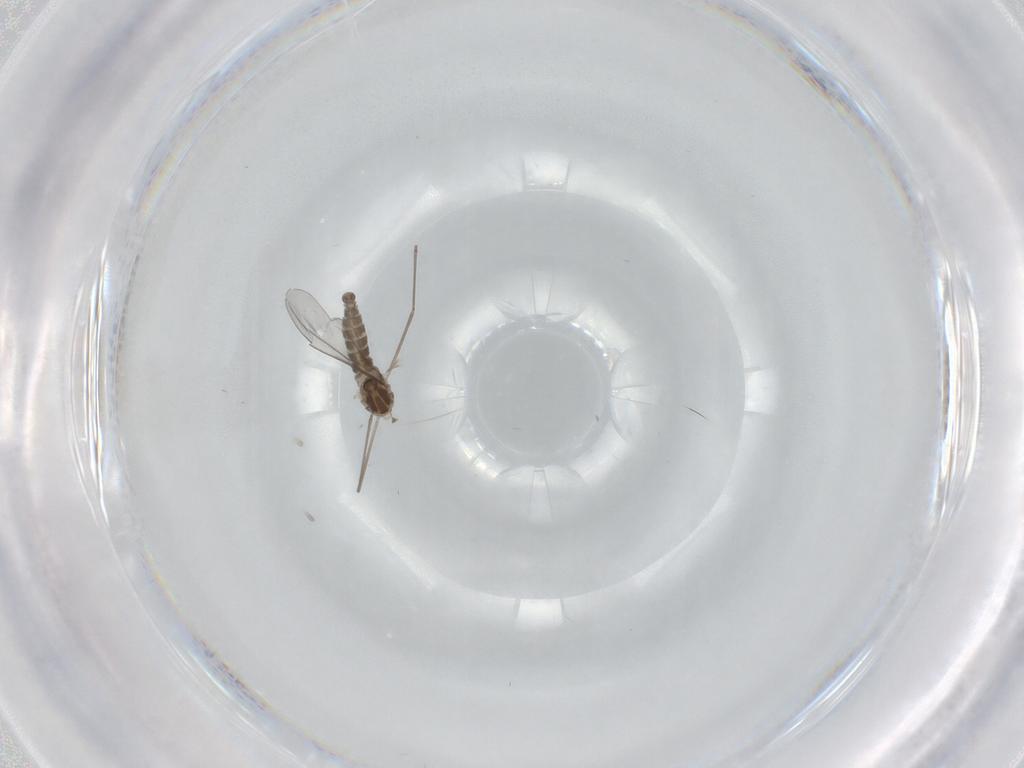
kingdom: Animalia
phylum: Arthropoda
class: Insecta
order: Diptera
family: Cecidomyiidae
